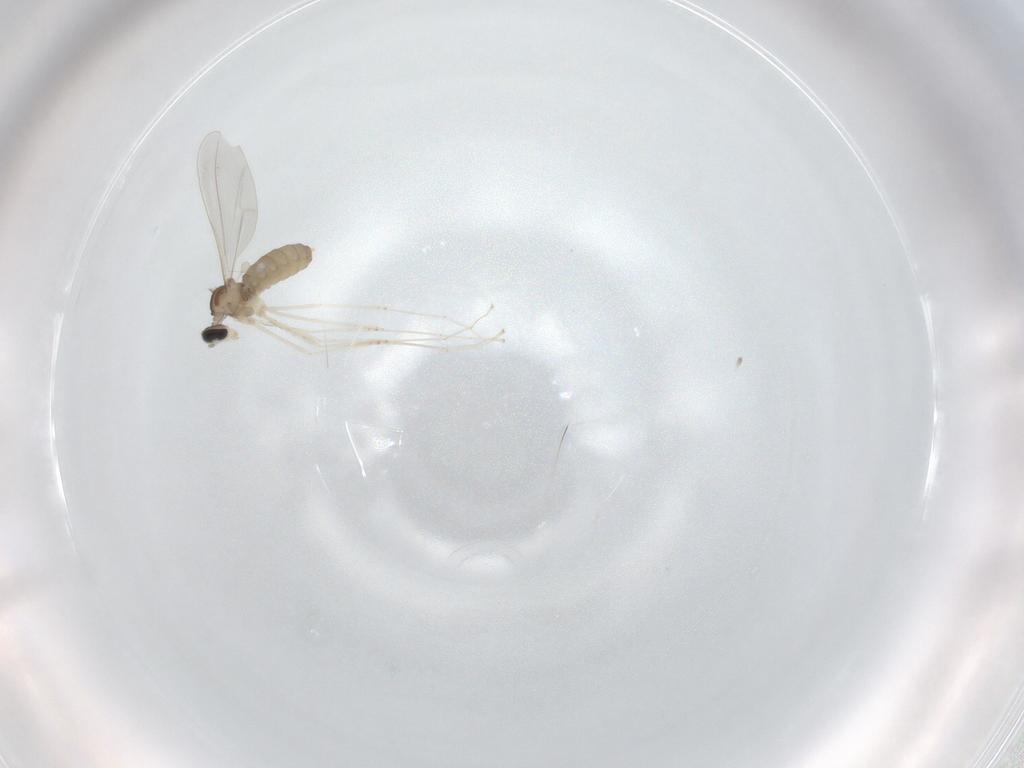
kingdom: Animalia
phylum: Arthropoda
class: Insecta
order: Diptera
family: Cecidomyiidae
